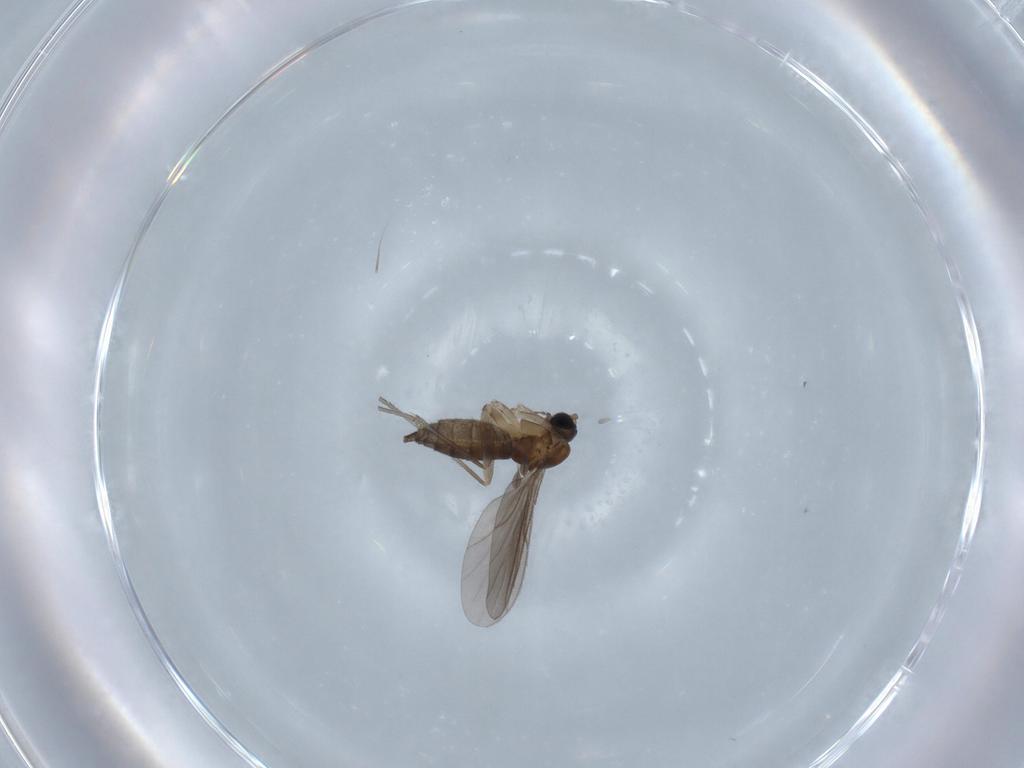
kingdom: Animalia
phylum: Arthropoda
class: Insecta
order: Diptera
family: Sciaridae
